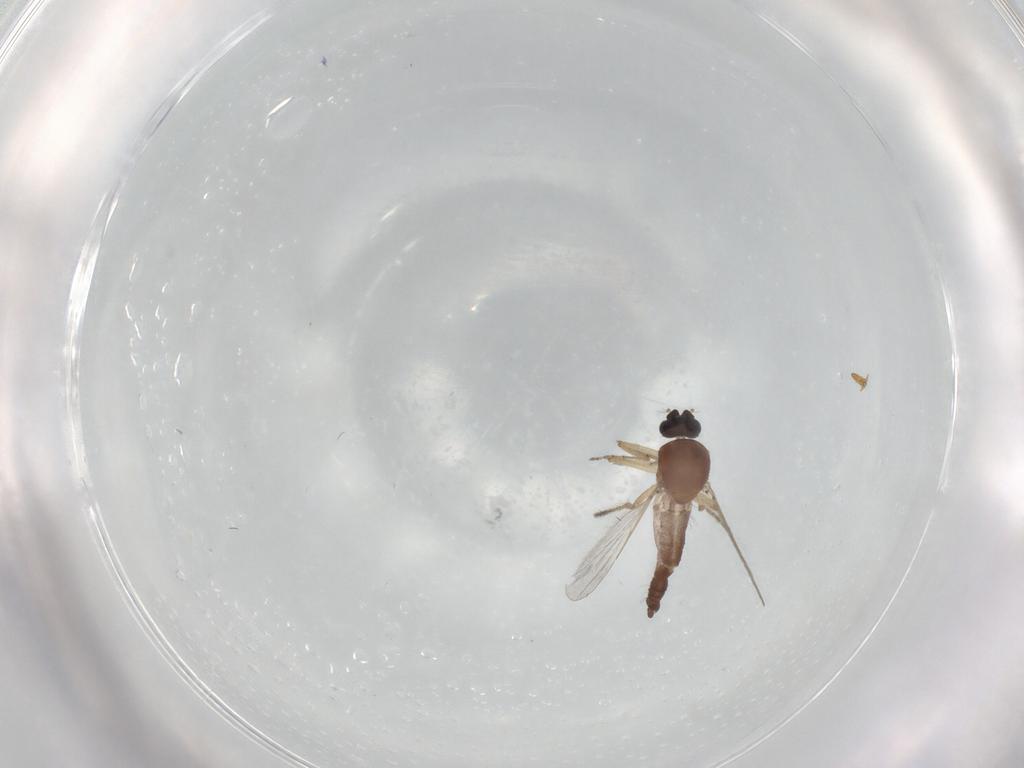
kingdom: Animalia
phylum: Arthropoda
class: Insecta
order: Diptera
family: Ceratopogonidae
